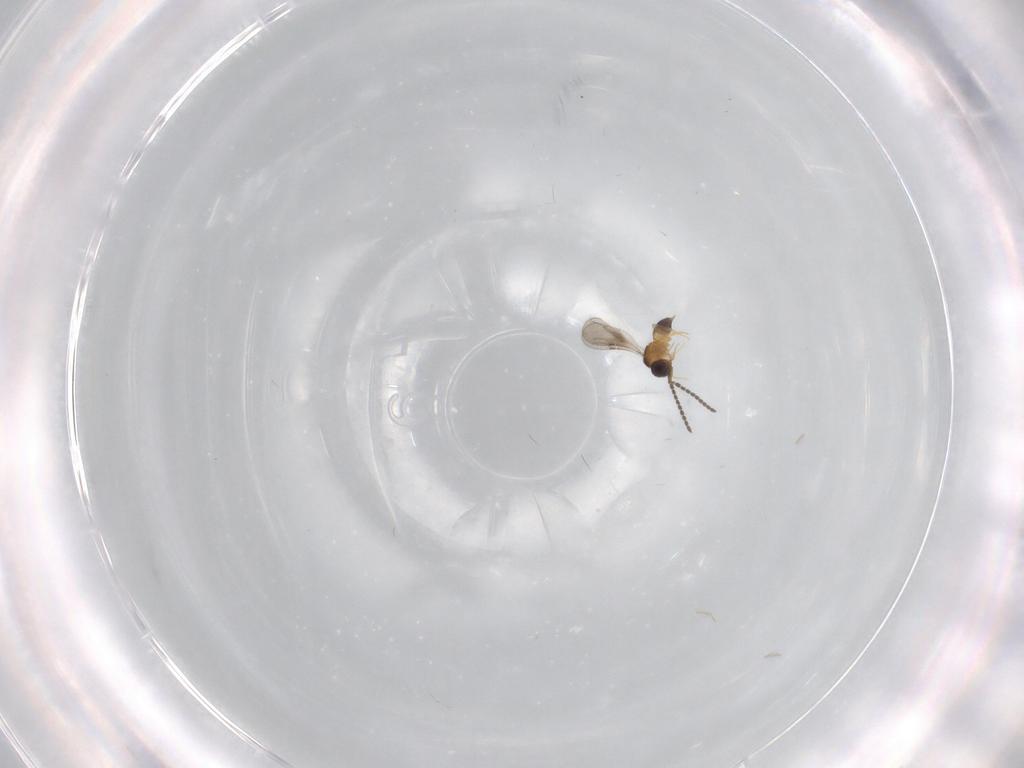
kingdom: Animalia
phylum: Arthropoda
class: Insecta
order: Hymenoptera
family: Ceraphronidae
